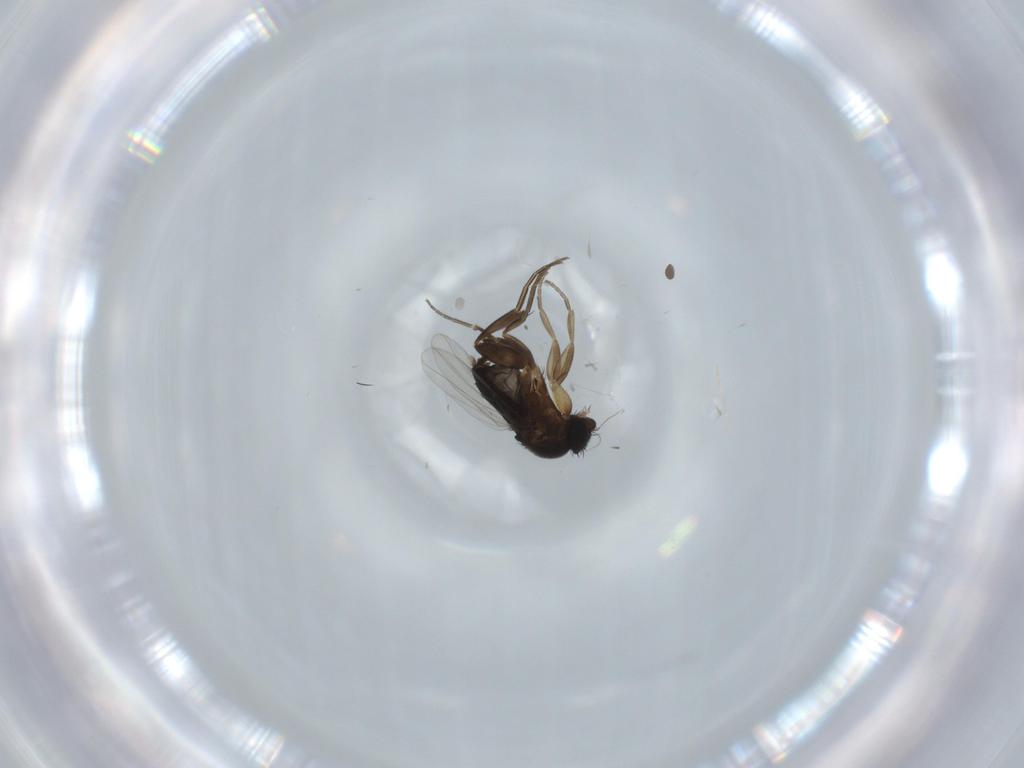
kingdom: Animalia
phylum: Arthropoda
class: Insecta
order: Diptera
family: Phoridae
